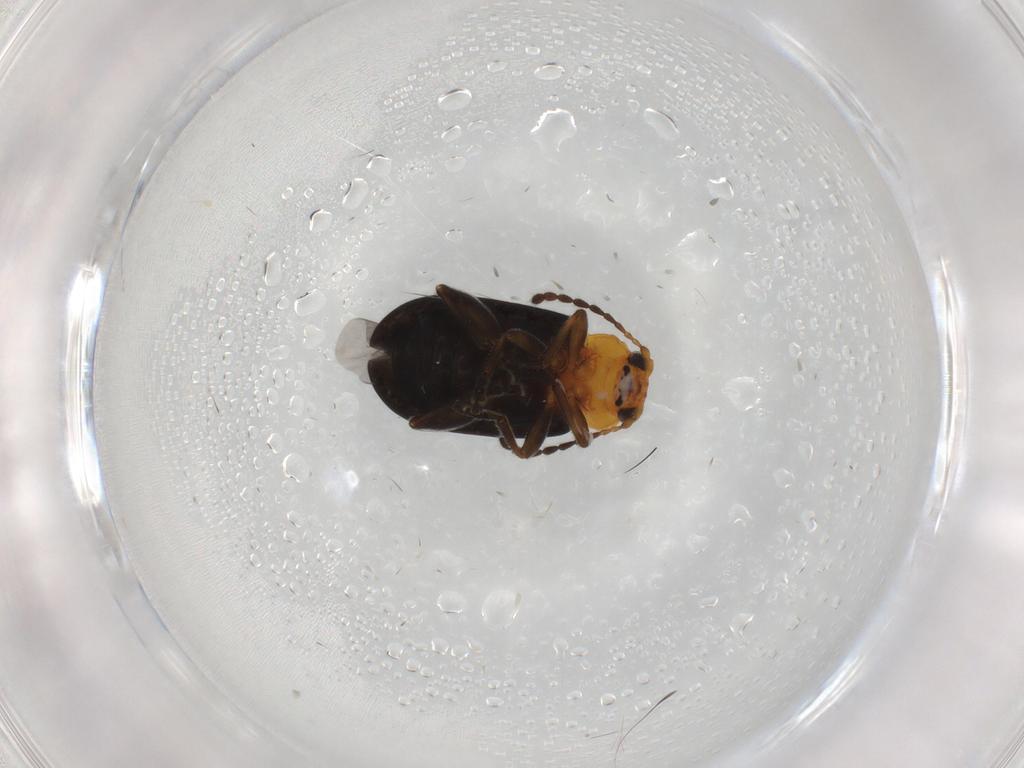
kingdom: Animalia
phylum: Arthropoda
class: Insecta
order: Coleoptera
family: Chrysomelidae
